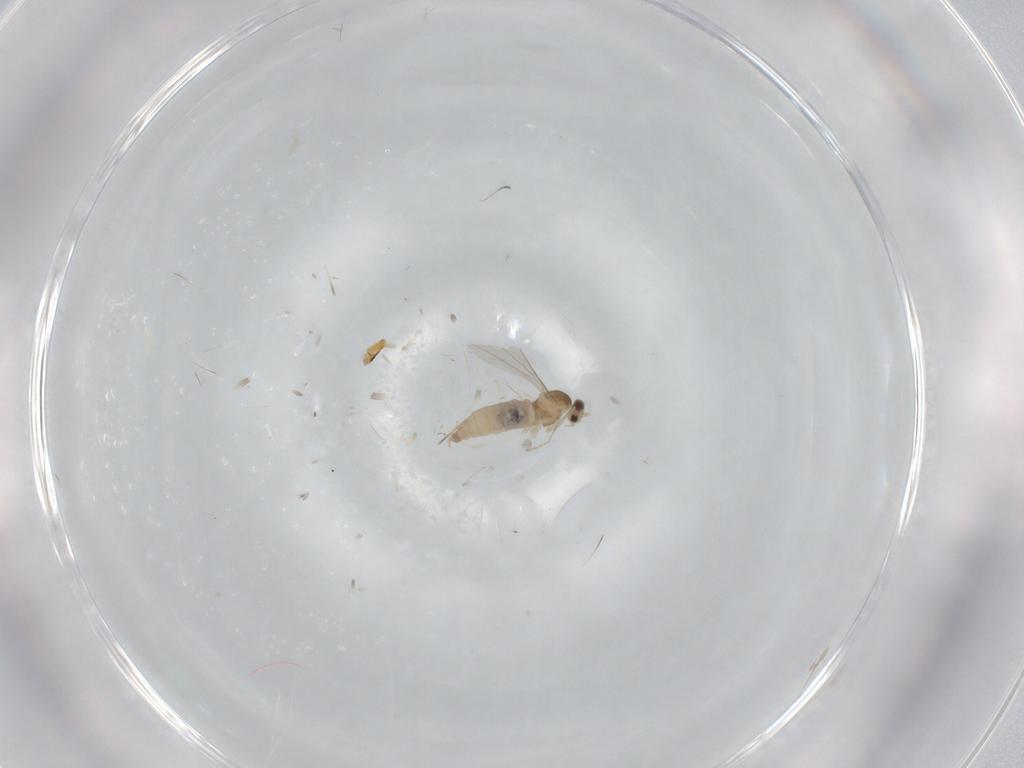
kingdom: Animalia
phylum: Arthropoda
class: Insecta
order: Diptera
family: Cecidomyiidae
